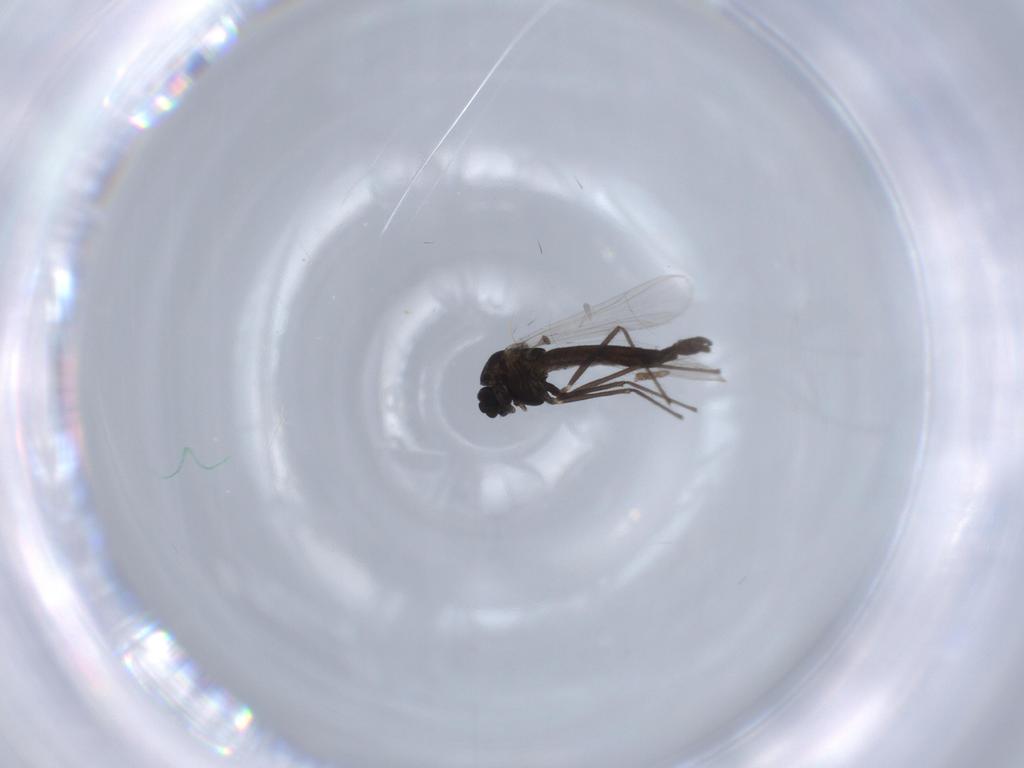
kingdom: Animalia
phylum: Arthropoda
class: Insecta
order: Diptera
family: Chironomidae
